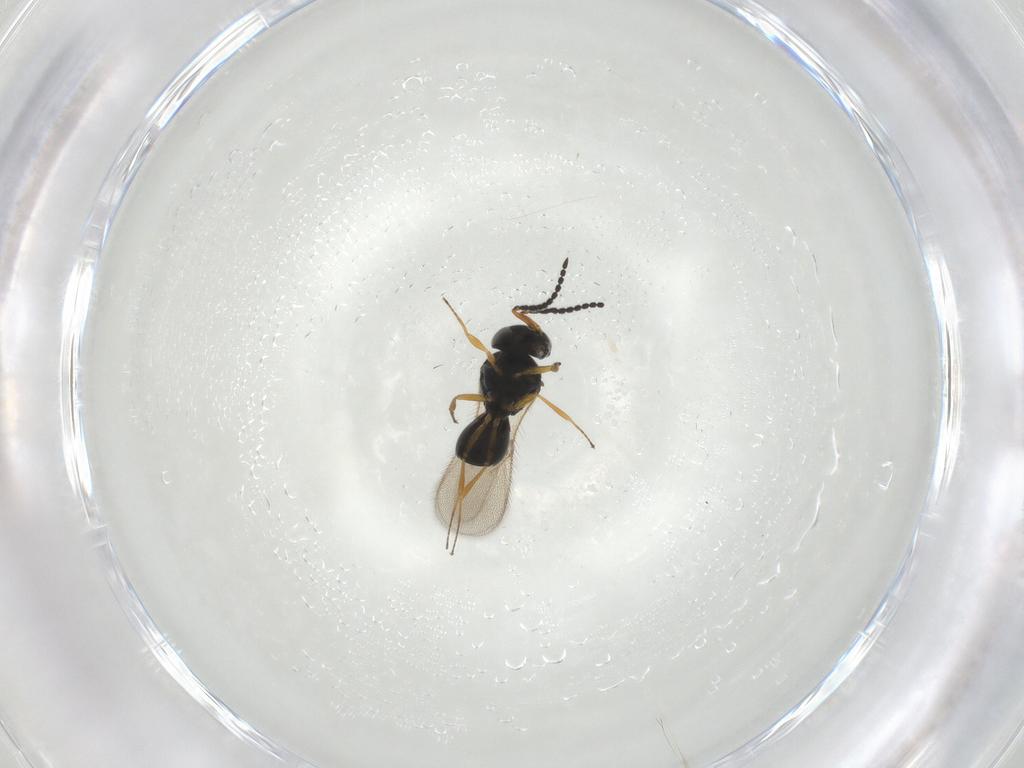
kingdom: Animalia
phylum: Arthropoda
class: Insecta
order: Hymenoptera
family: Scelionidae
